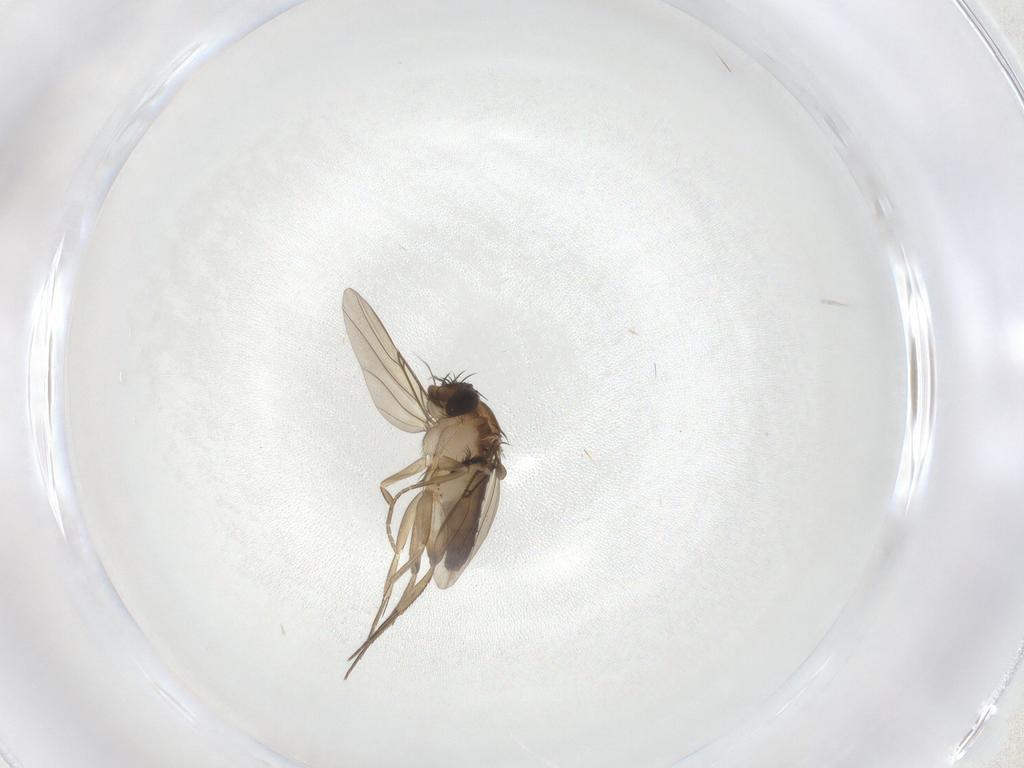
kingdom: Animalia
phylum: Arthropoda
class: Insecta
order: Diptera
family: Phoridae
